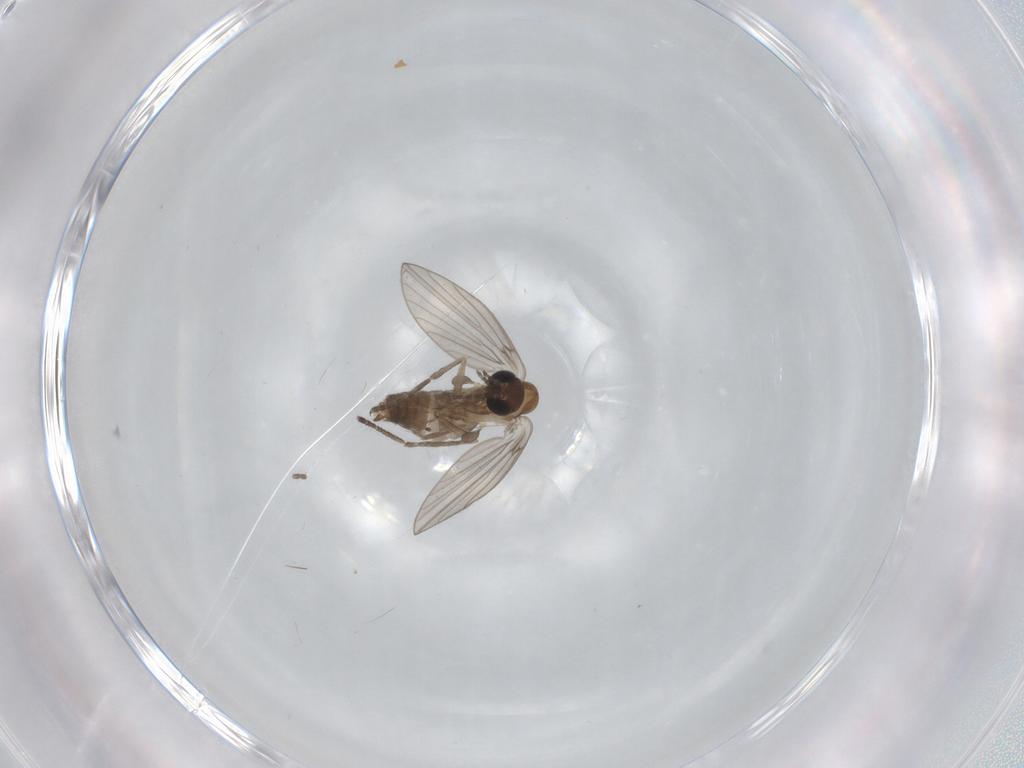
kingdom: Animalia
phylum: Arthropoda
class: Insecta
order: Diptera
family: Psychodidae
